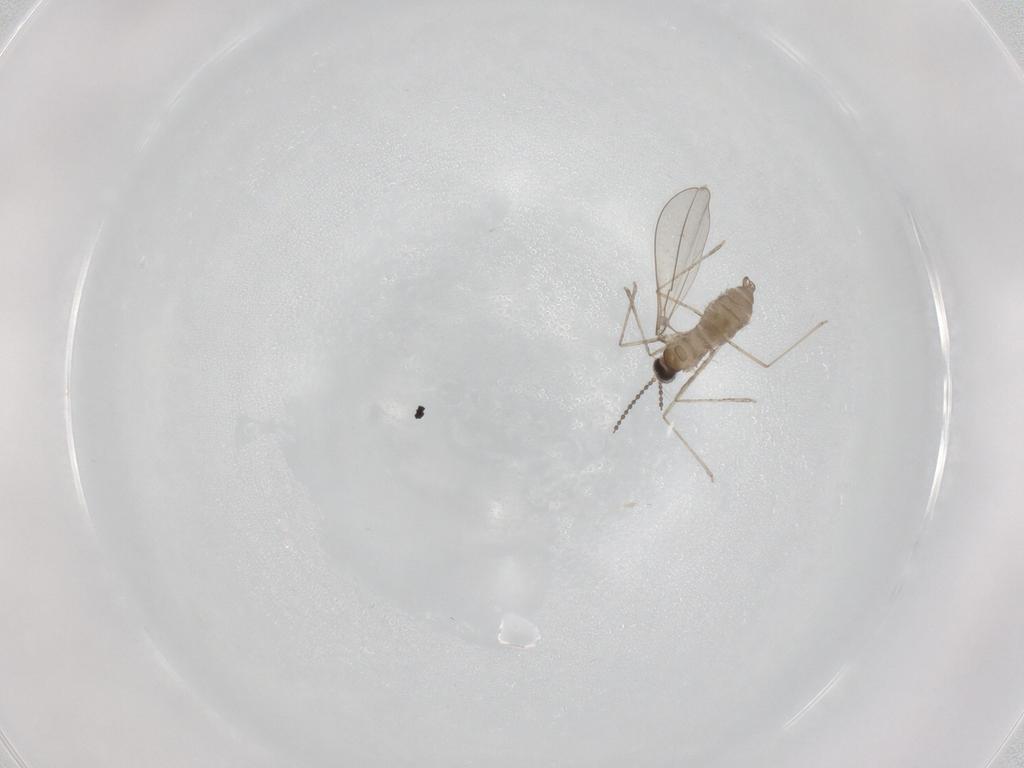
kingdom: Animalia
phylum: Arthropoda
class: Insecta
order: Diptera
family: Cecidomyiidae
